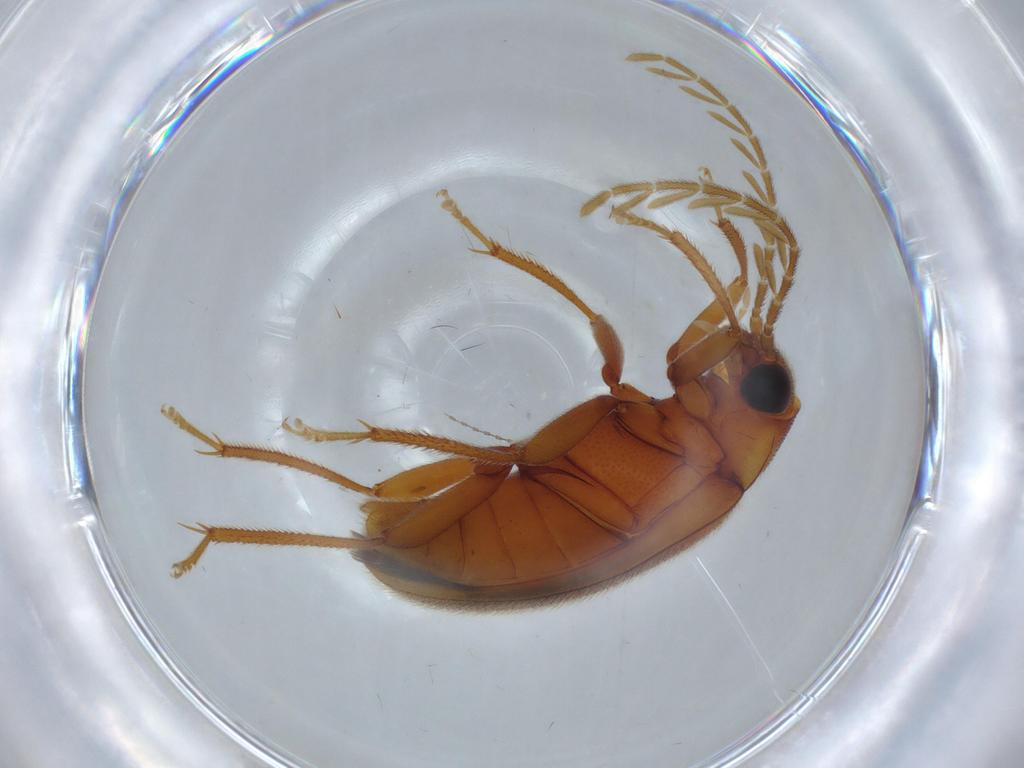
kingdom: Animalia
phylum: Arthropoda
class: Insecta
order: Coleoptera
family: Ptilodactylidae
